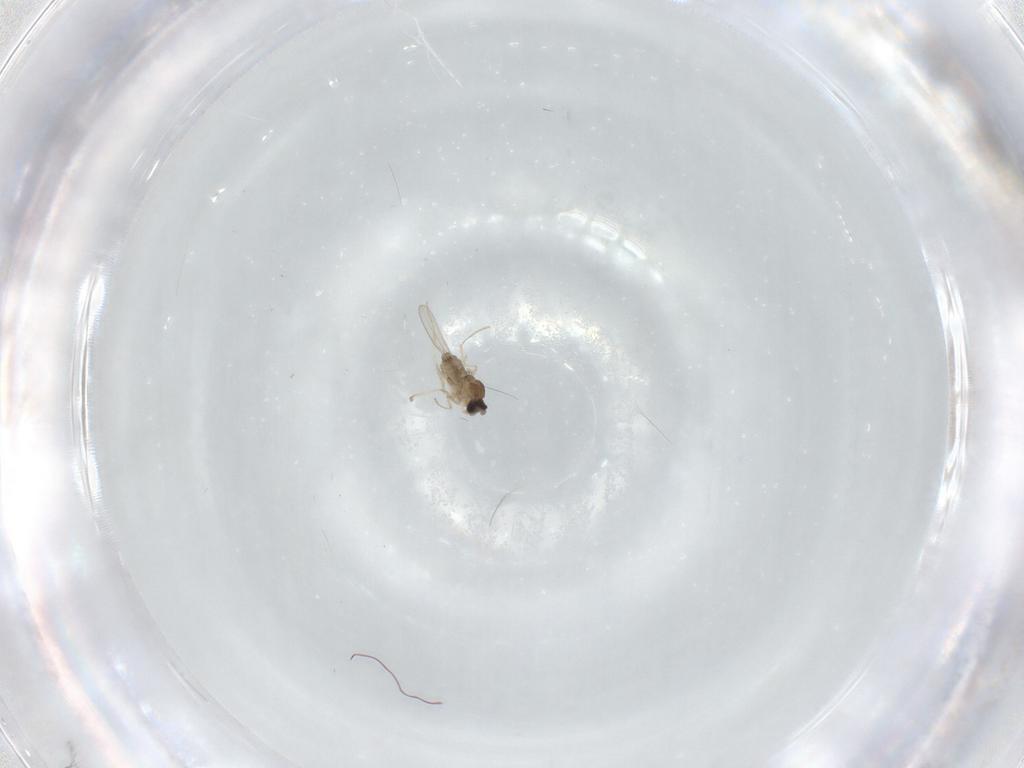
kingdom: Animalia
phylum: Arthropoda
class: Insecta
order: Diptera
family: Cecidomyiidae
